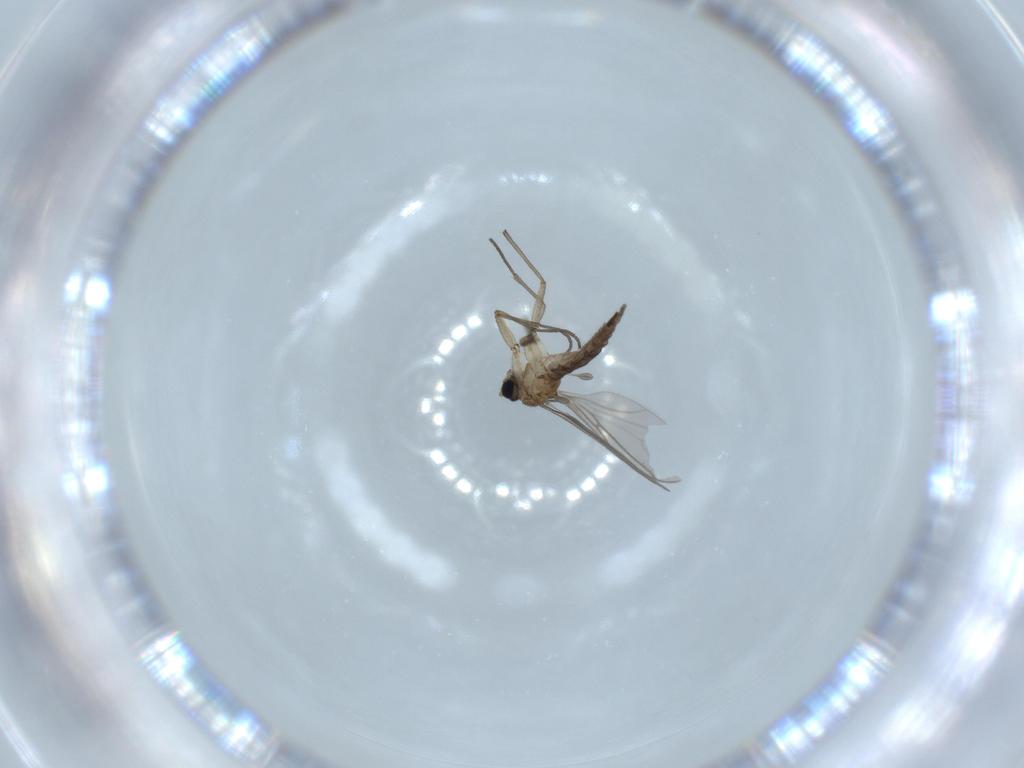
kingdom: Animalia
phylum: Arthropoda
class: Insecta
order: Diptera
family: Sciaridae
